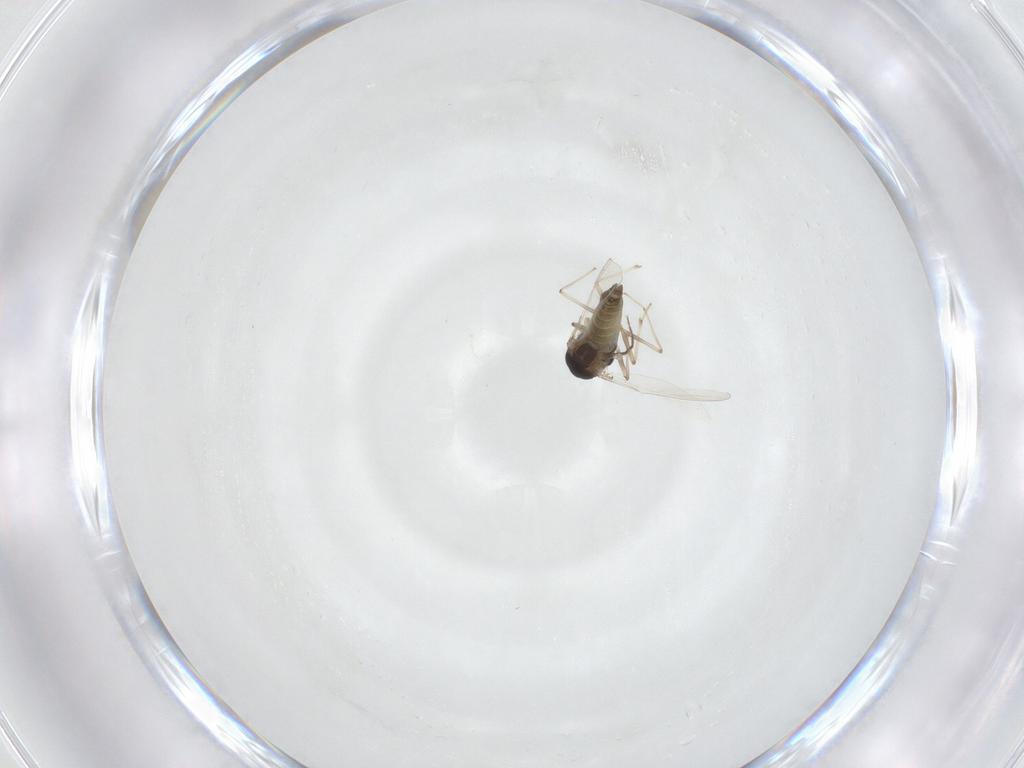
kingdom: Animalia
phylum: Arthropoda
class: Insecta
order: Diptera
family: Chironomidae
